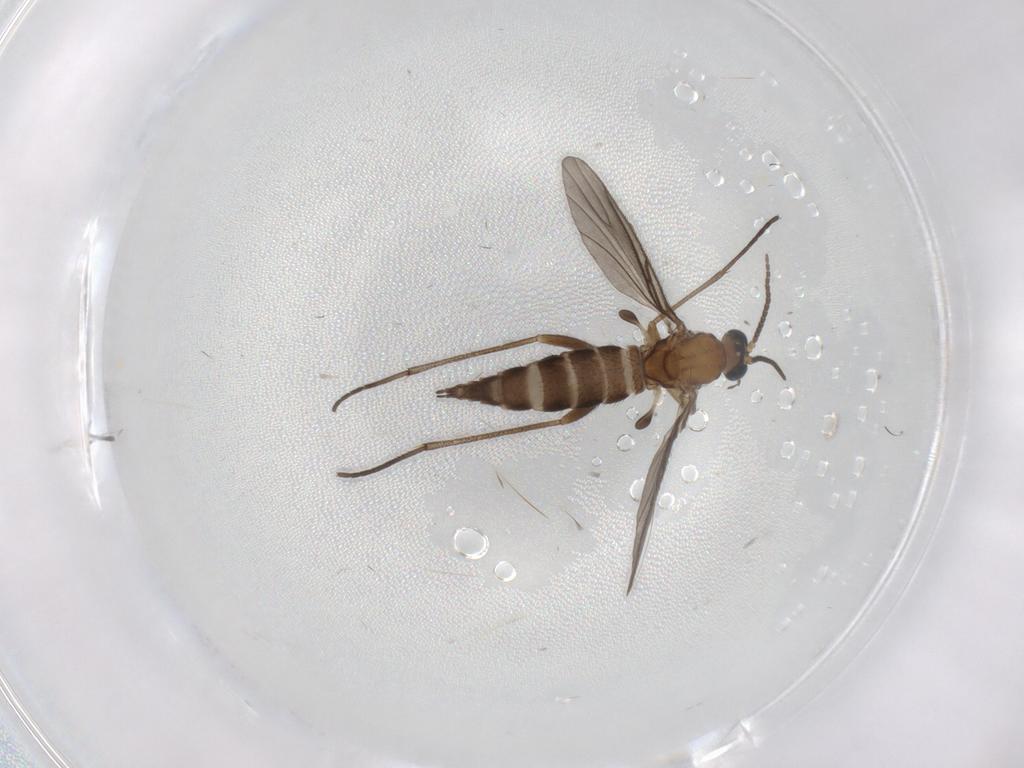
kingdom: Animalia
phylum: Arthropoda
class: Insecta
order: Diptera
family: Sciaridae
